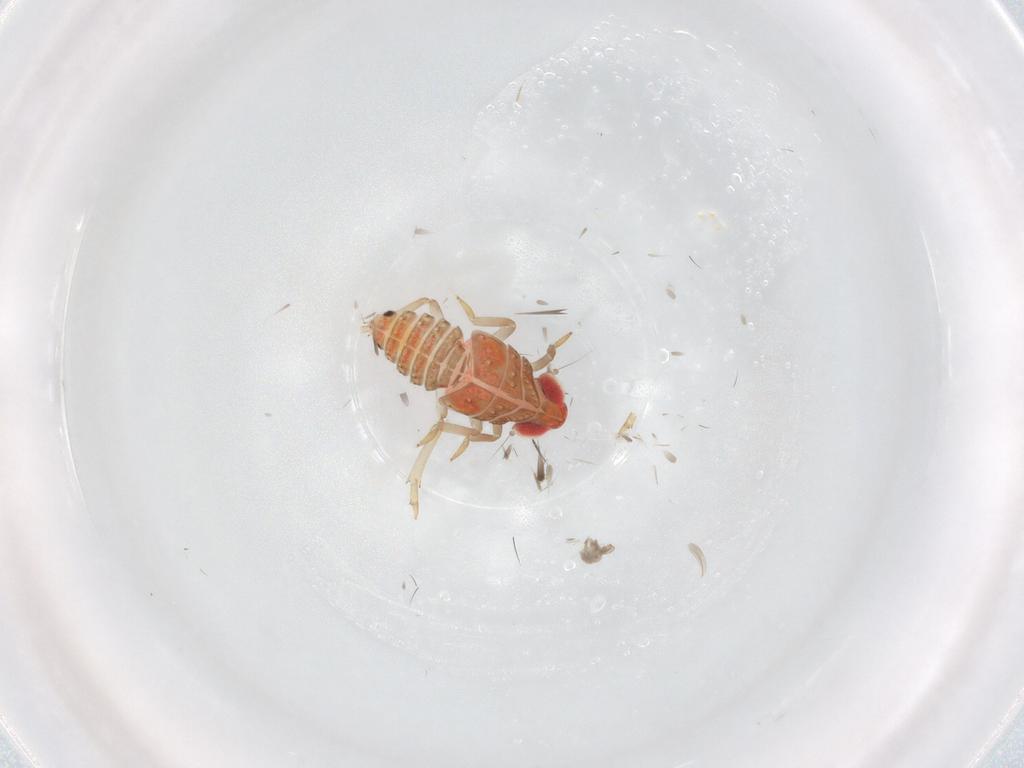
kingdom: Animalia
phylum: Arthropoda
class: Insecta
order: Hemiptera
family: Issidae
